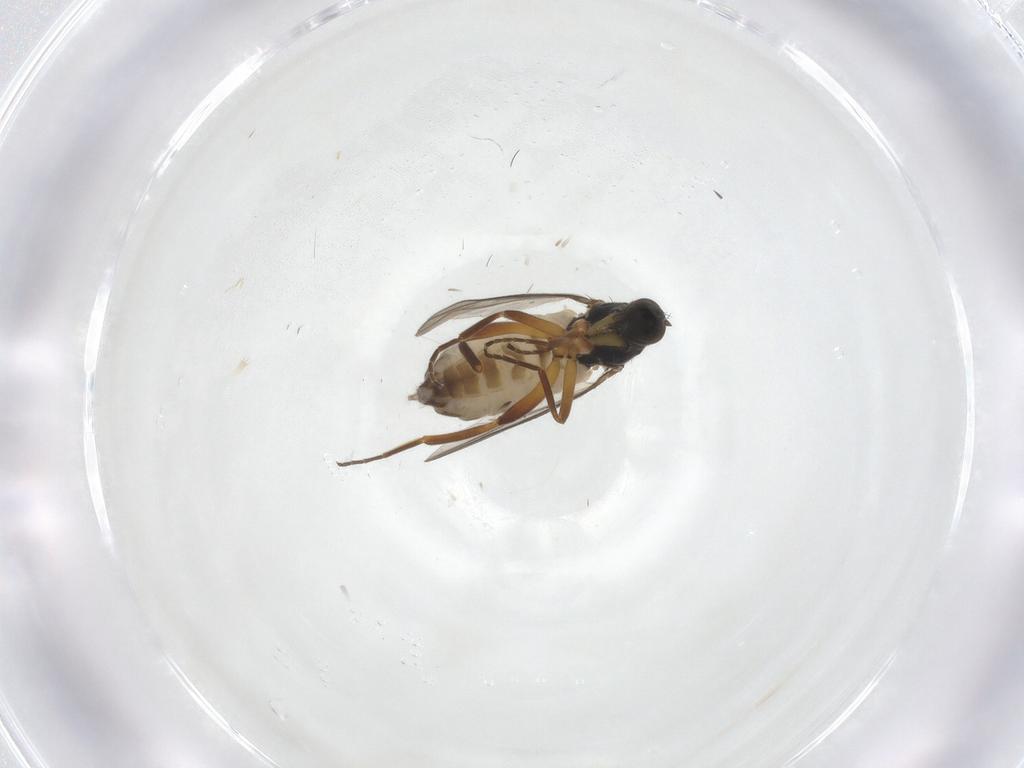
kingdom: Animalia
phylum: Arthropoda
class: Insecta
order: Diptera
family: Hybotidae
